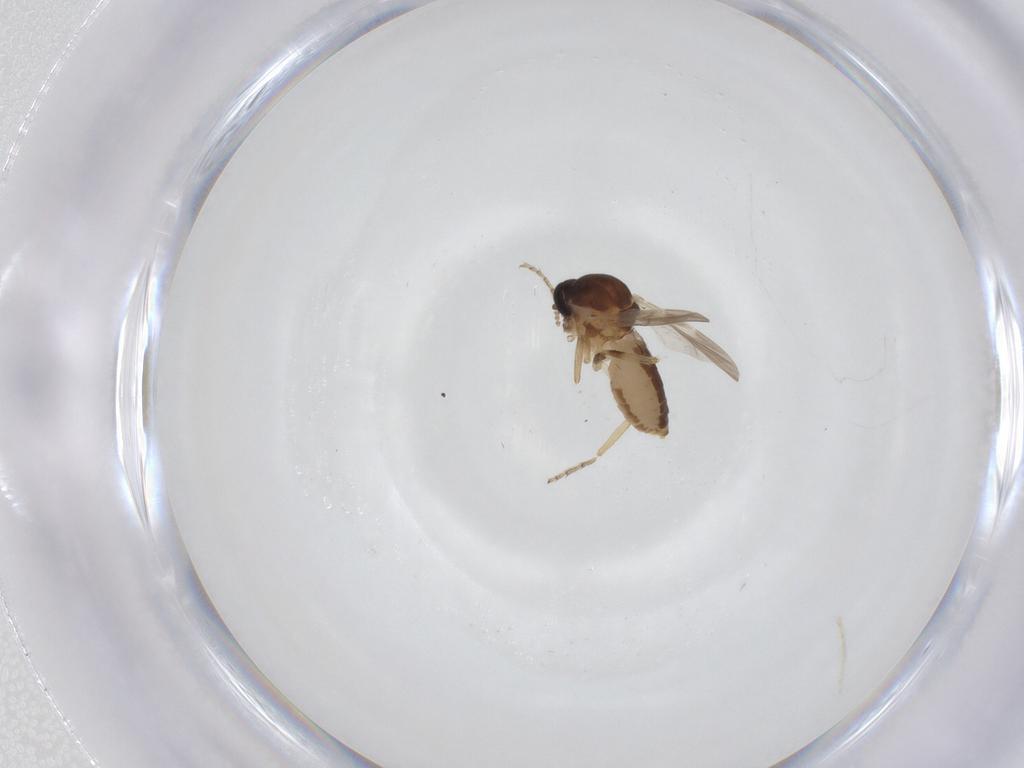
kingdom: Animalia
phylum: Arthropoda
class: Insecta
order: Diptera
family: Ceratopogonidae
